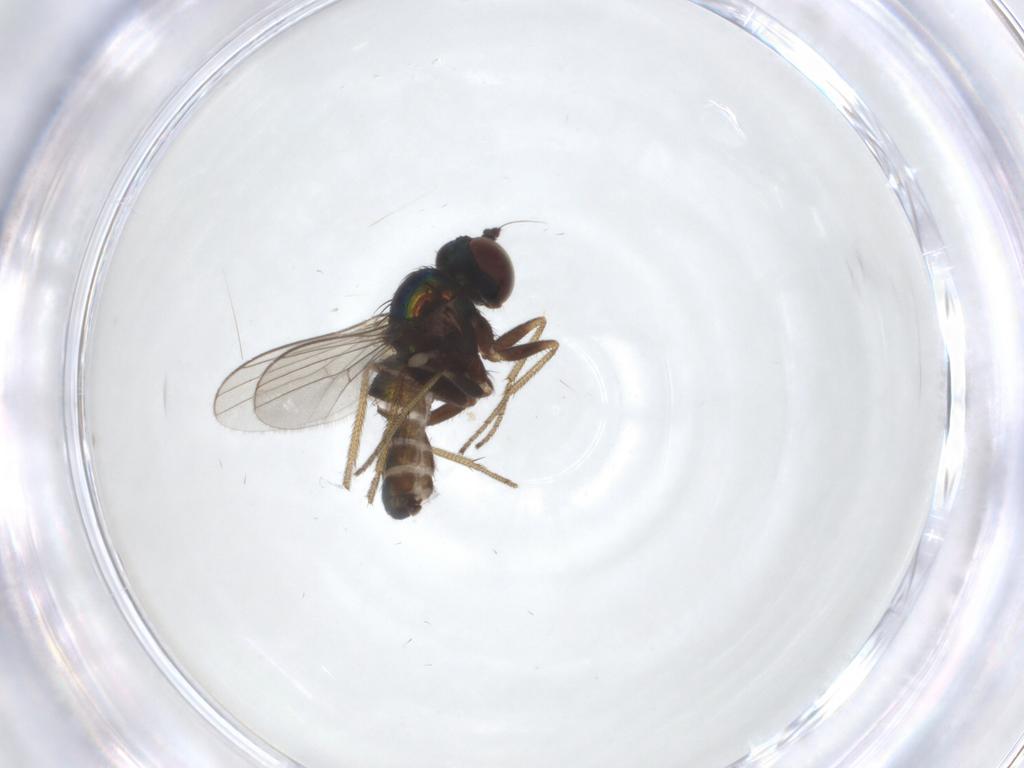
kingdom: Animalia
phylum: Arthropoda
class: Insecta
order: Diptera
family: Dolichopodidae
